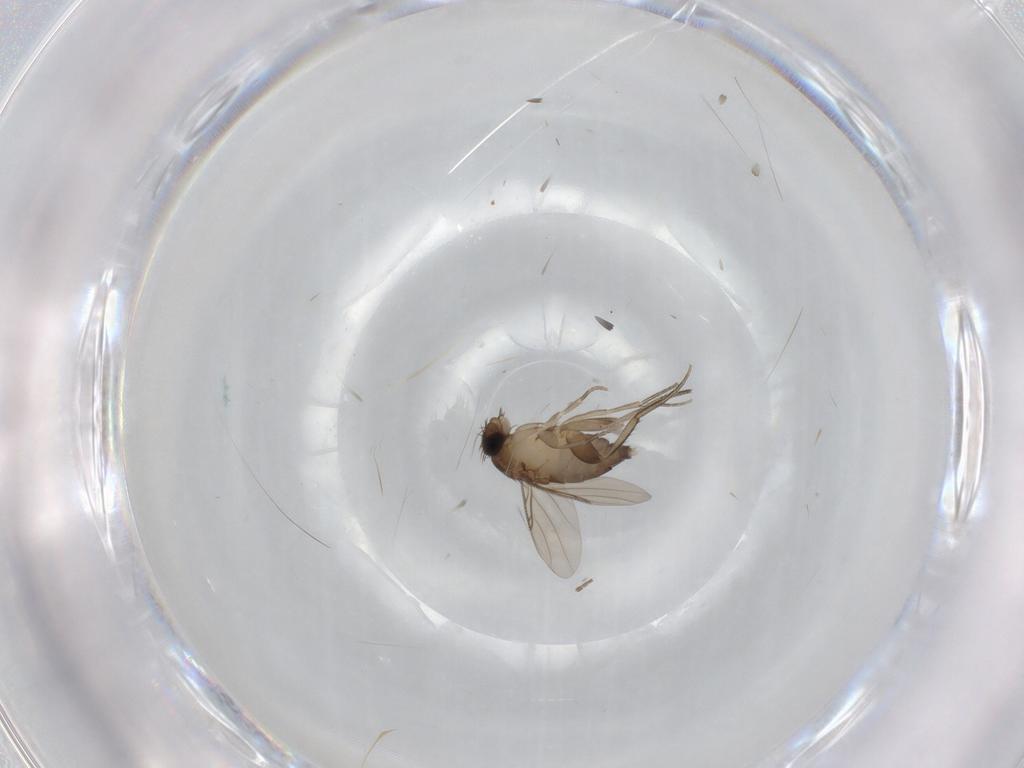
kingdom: Animalia
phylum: Arthropoda
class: Insecta
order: Diptera
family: Phoridae
